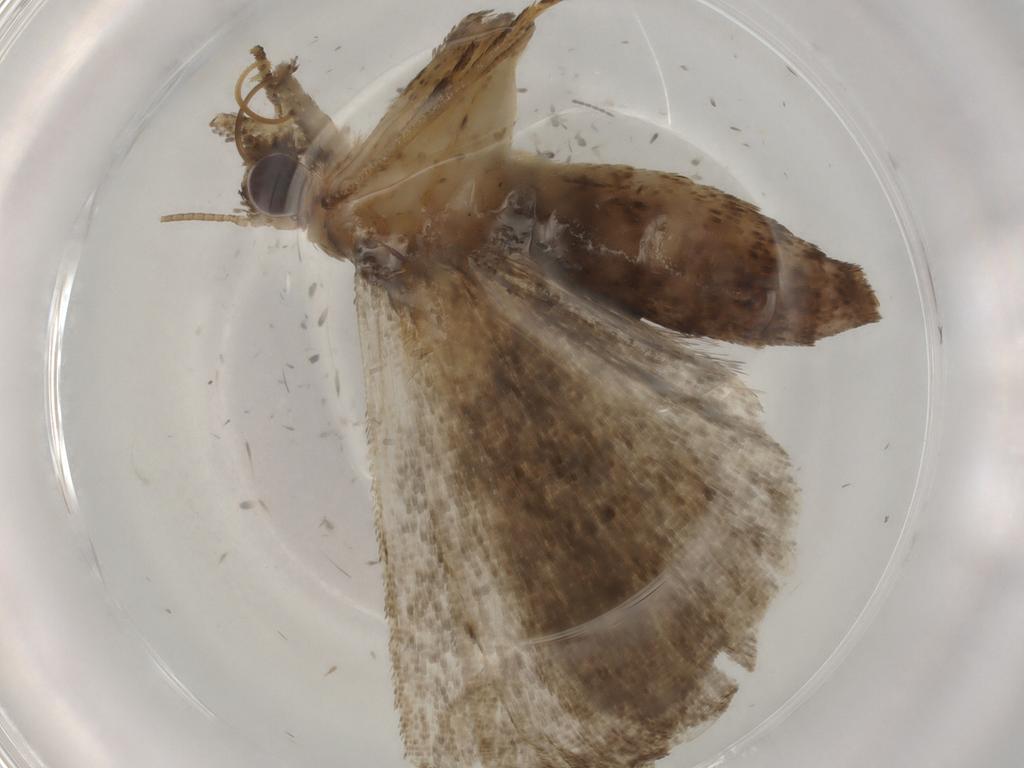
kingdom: Animalia
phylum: Arthropoda
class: Insecta
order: Lepidoptera
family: Erebidae
